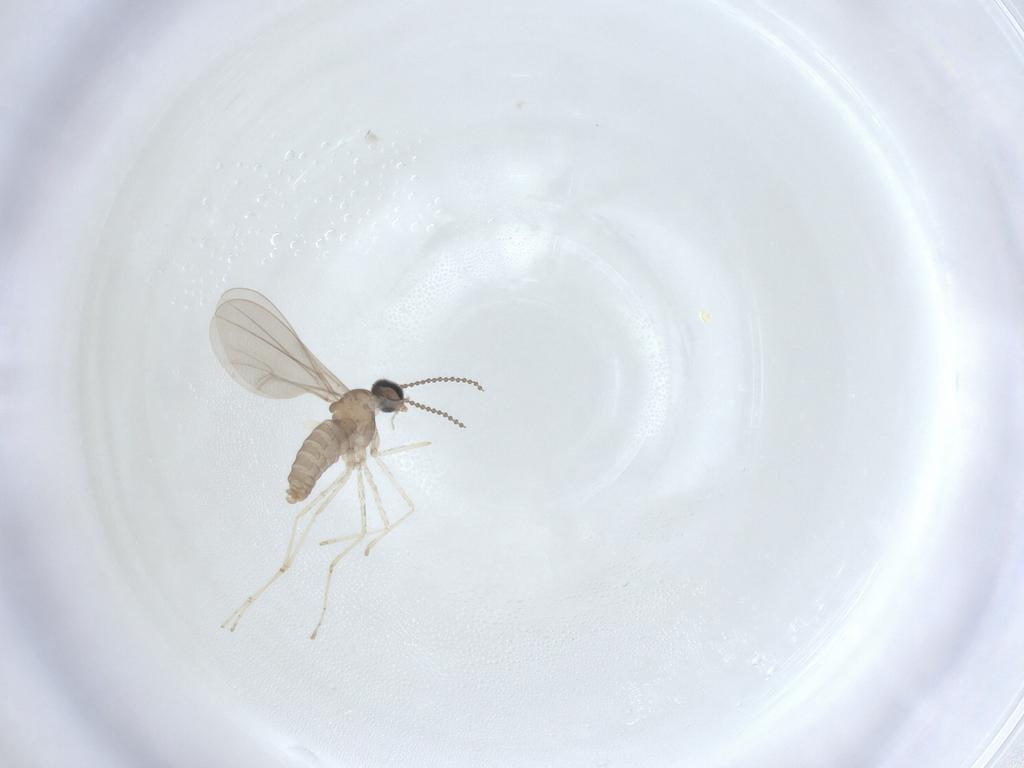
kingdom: Animalia
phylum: Arthropoda
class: Insecta
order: Diptera
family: Cecidomyiidae
